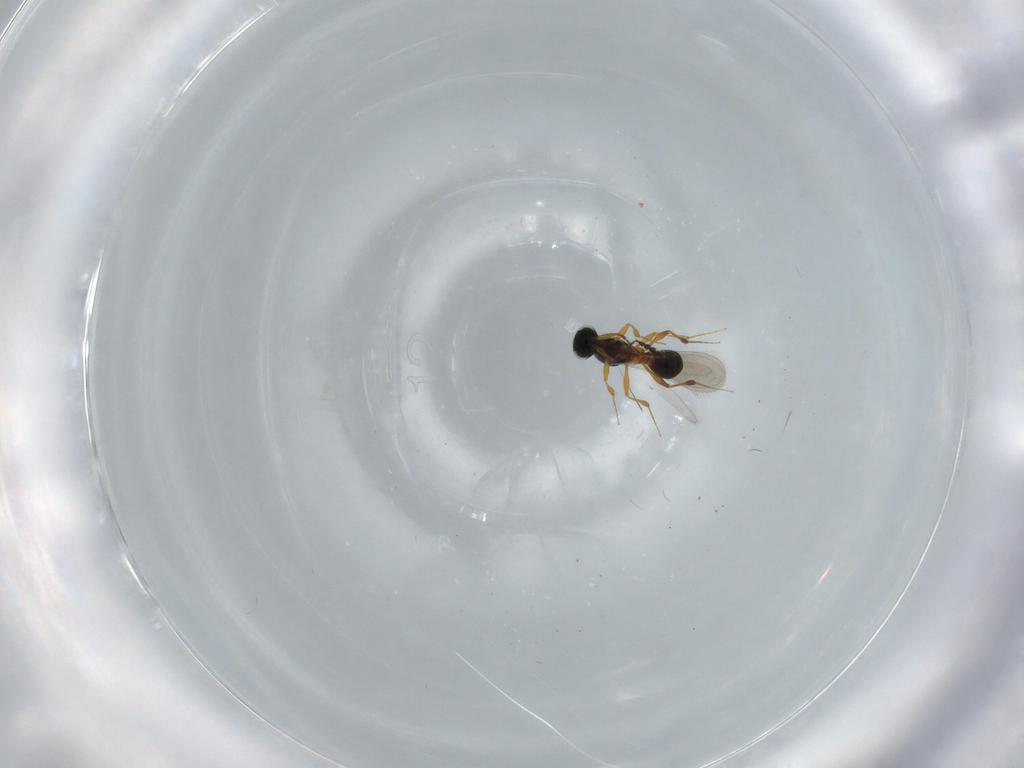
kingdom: Animalia
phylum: Arthropoda
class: Insecta
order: Hymenoptera
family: Platygastridae
